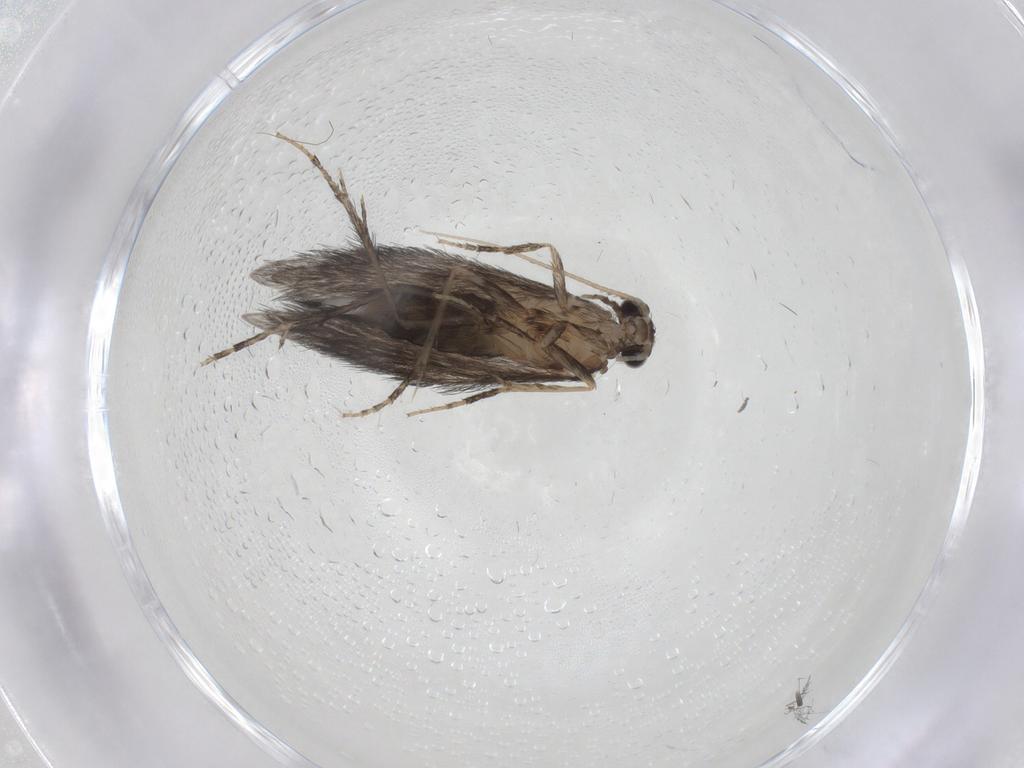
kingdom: Animalia
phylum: Arthropoda
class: Insecta
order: Trichoptera
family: Hydroptilidae
